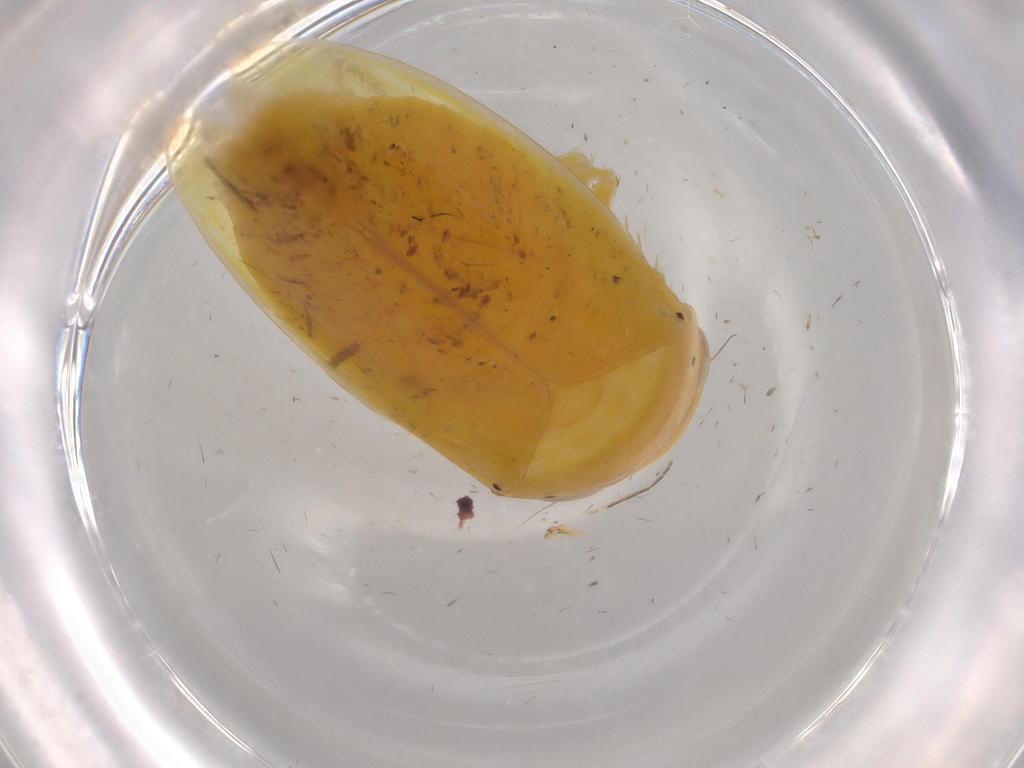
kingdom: Animalia
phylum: Arthropoda
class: Insecta
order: Hemiptera
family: Cicadellidae
